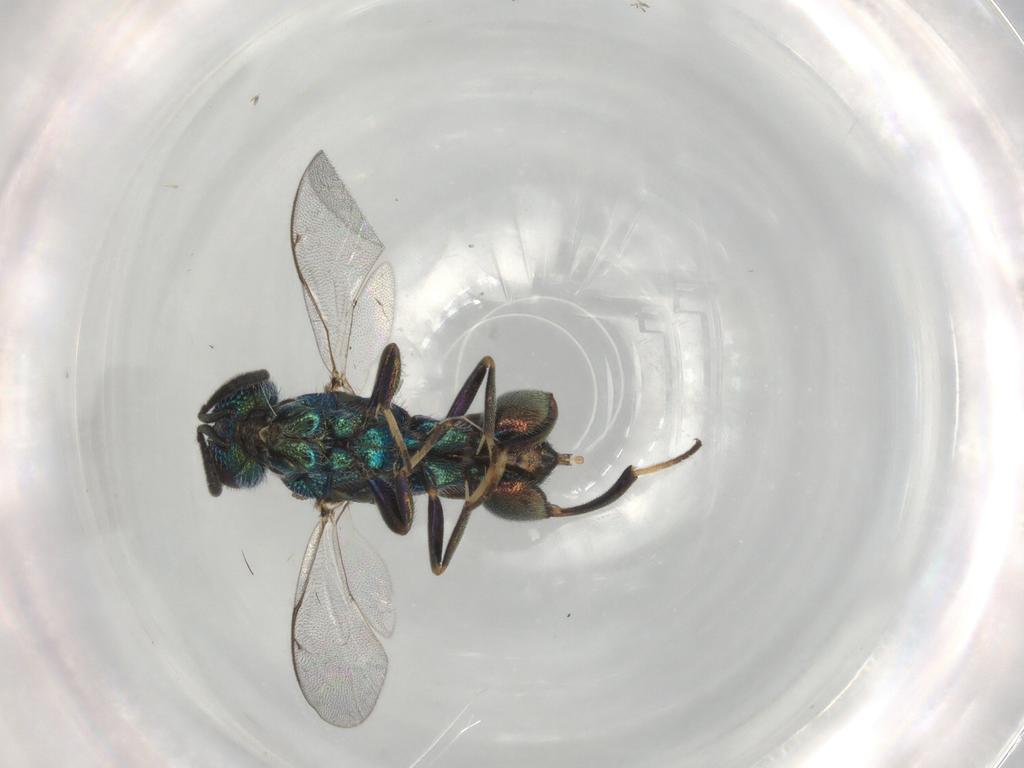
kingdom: Animalia
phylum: Arthropoda
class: Insecta
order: Hymenoptera
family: Pteromalidae
